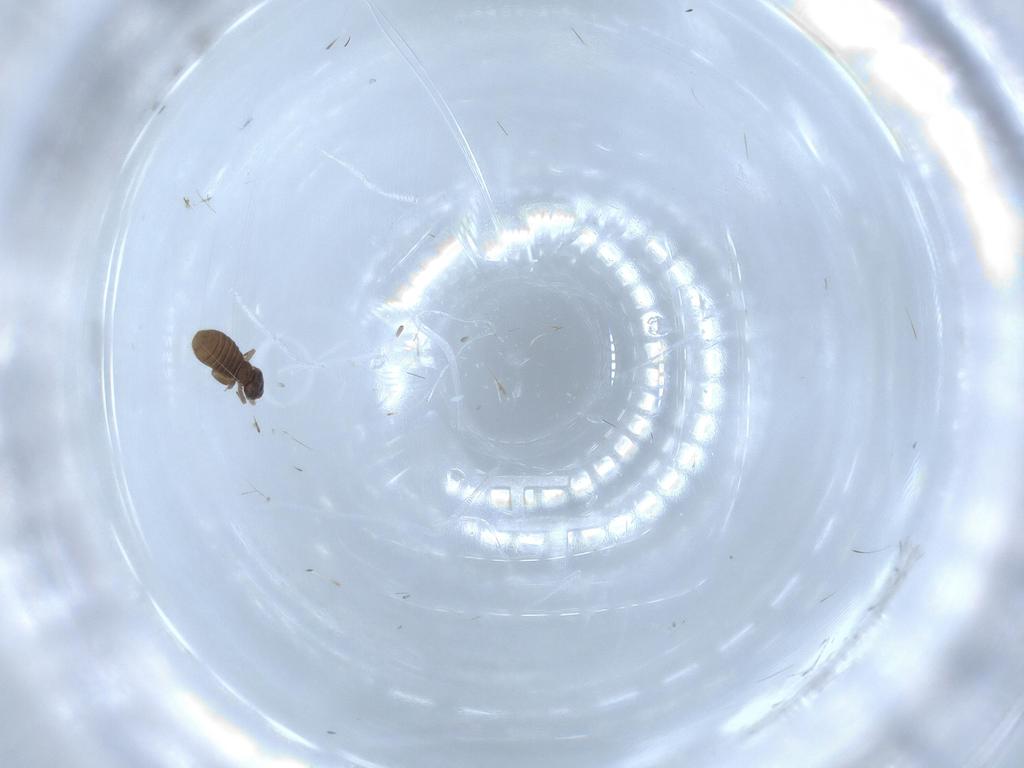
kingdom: Animalia
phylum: Arthropoda
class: Insecta
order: Psocodea
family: Liposcelididae
